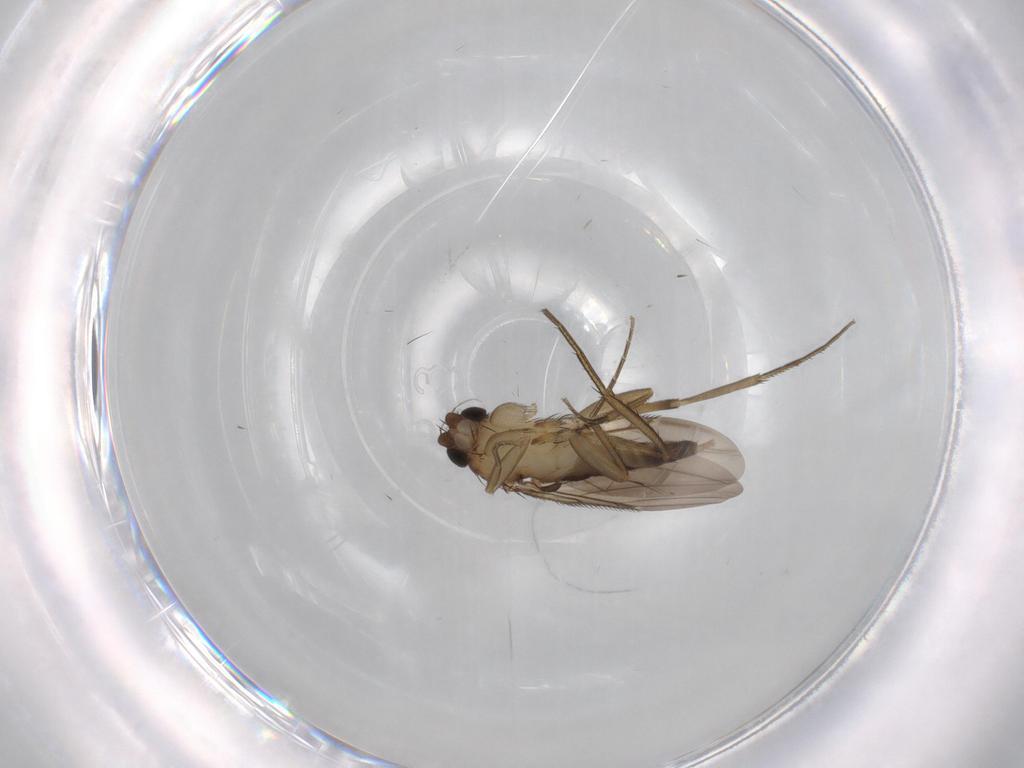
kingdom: Animalia
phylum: Arthropoda
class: Insecta
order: Diptera
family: Phoridae
